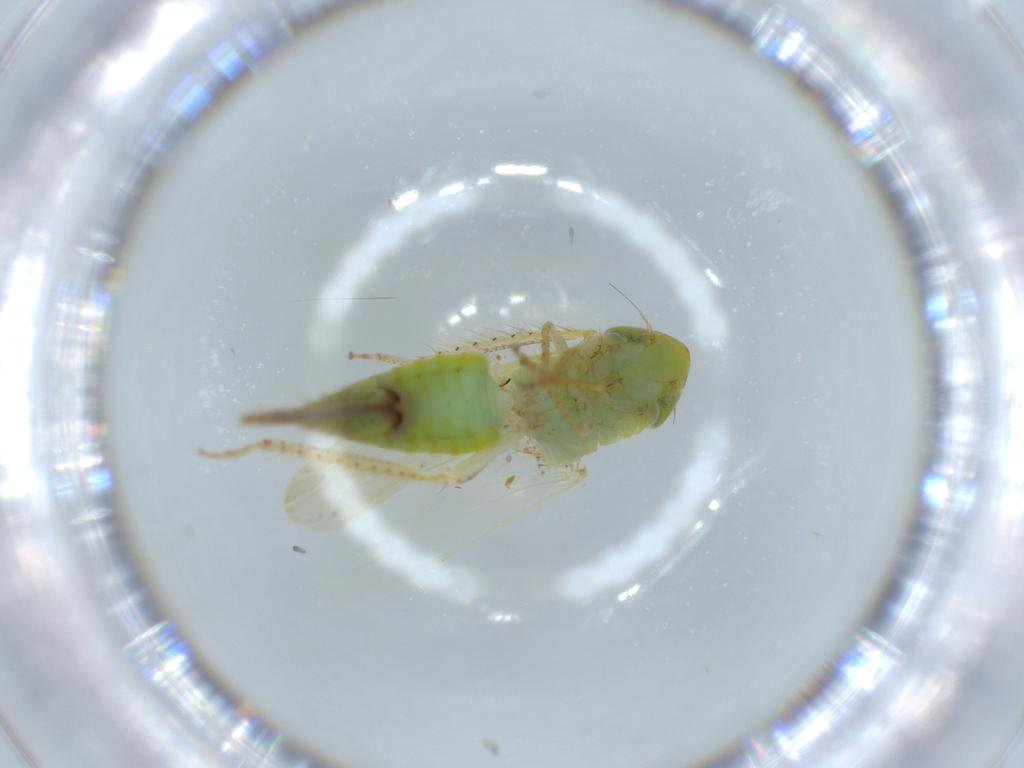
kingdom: Animalia
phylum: Arthropoda
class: Insecta
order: Hemiptera
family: Cicadellidae
